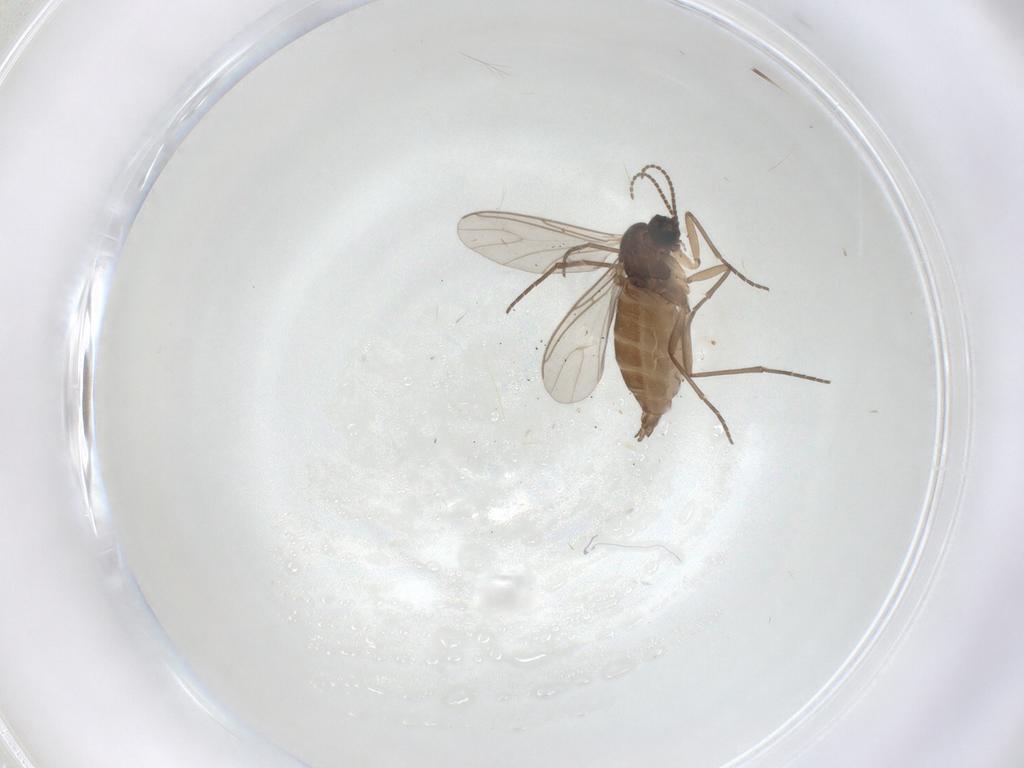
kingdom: Animalia
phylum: Arthropoda
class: Insecta
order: Diptera
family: Sciaridae
